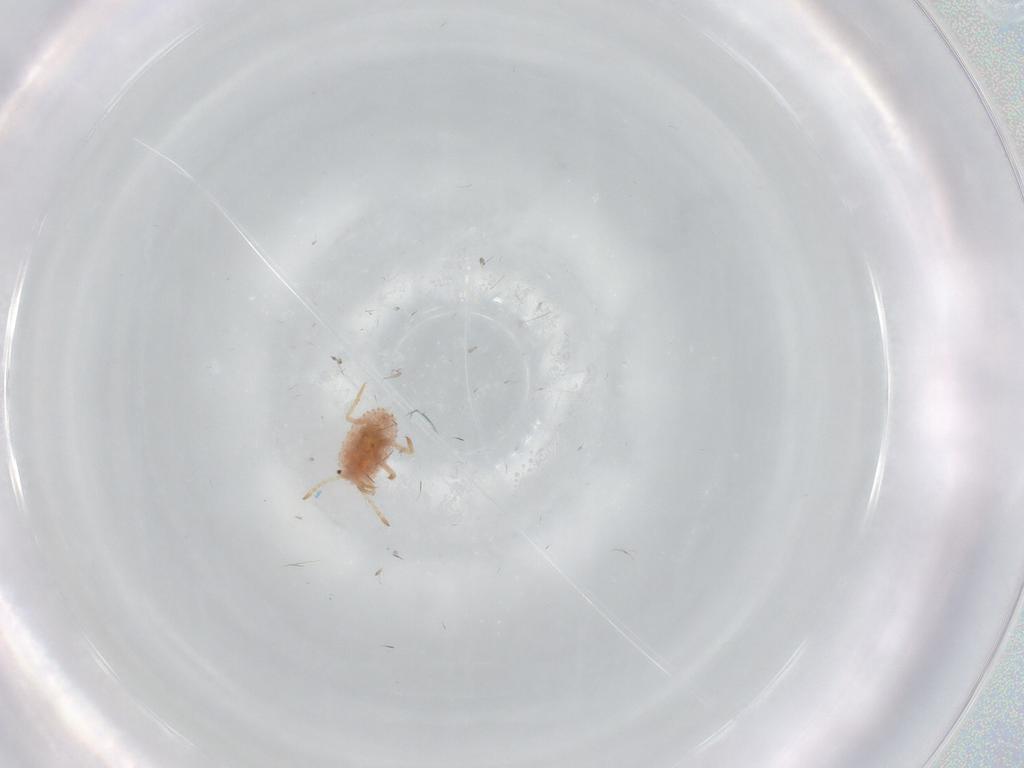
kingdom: Animalia
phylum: Arthropoda
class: Insecta
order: Hemiptera
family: Coccoidea_incertae_sedis
